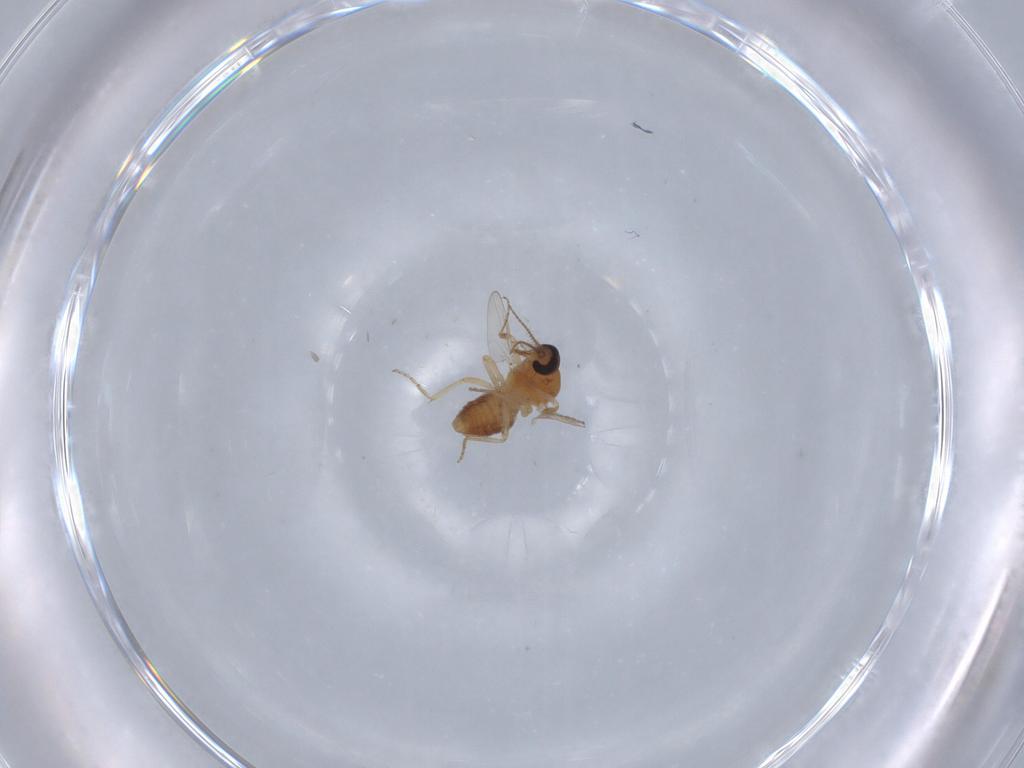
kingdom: Animalia
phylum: Arthropoda
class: Insecta
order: Diptera
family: Ceratopogonidae
